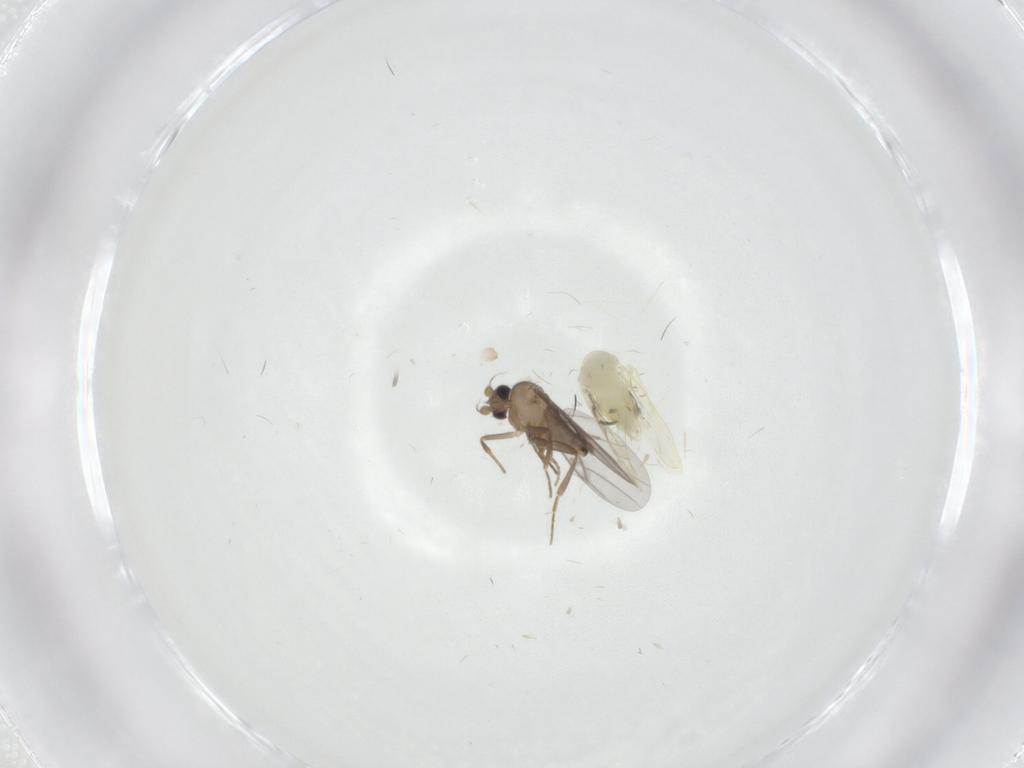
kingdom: Animalia
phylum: Arthropoda
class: Insecta
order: Diptera
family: Phoridae
